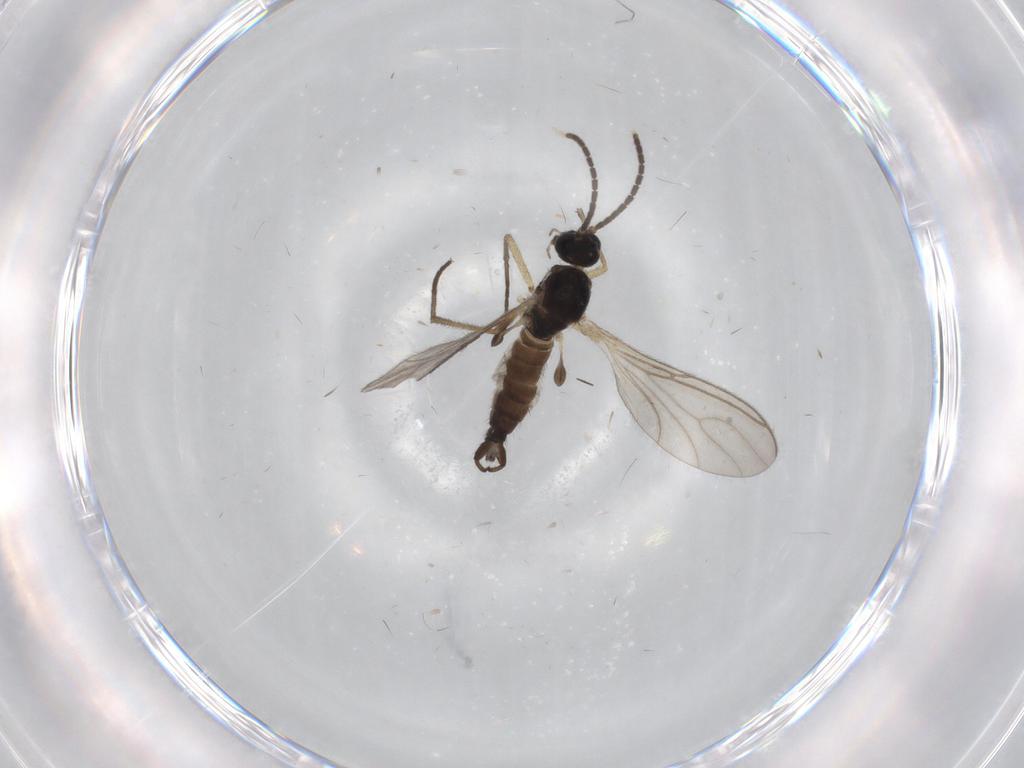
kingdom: Animalia
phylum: Arthropoda
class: Insecta
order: Diptera
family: Sciaridae
